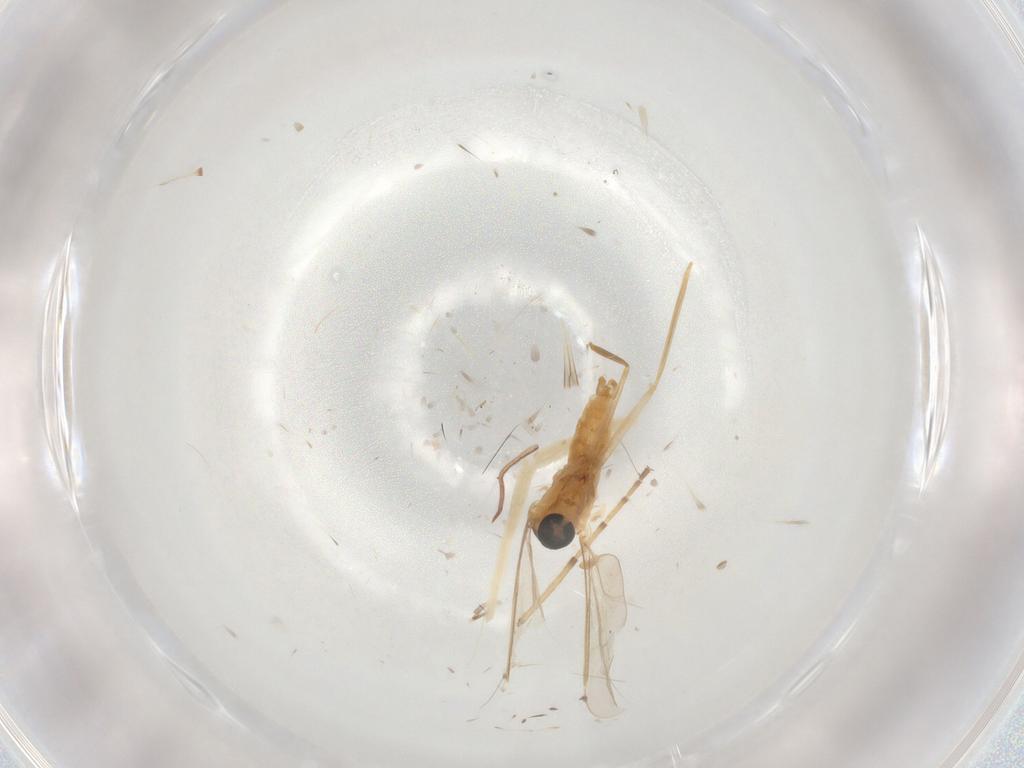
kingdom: Animalia
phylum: Arthropoda
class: Insecta
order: Diptera
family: Cecidomyiidae
